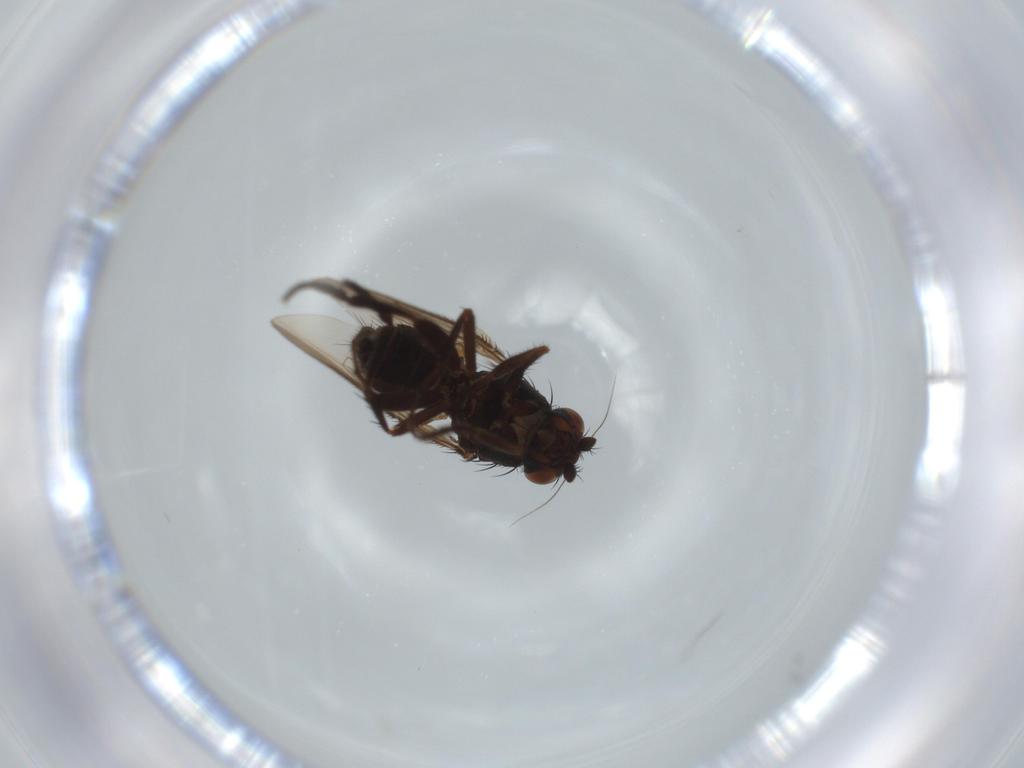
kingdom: Animalia
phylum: Arthropoda
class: Insecta
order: Diptera
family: Sphaeroceridae
